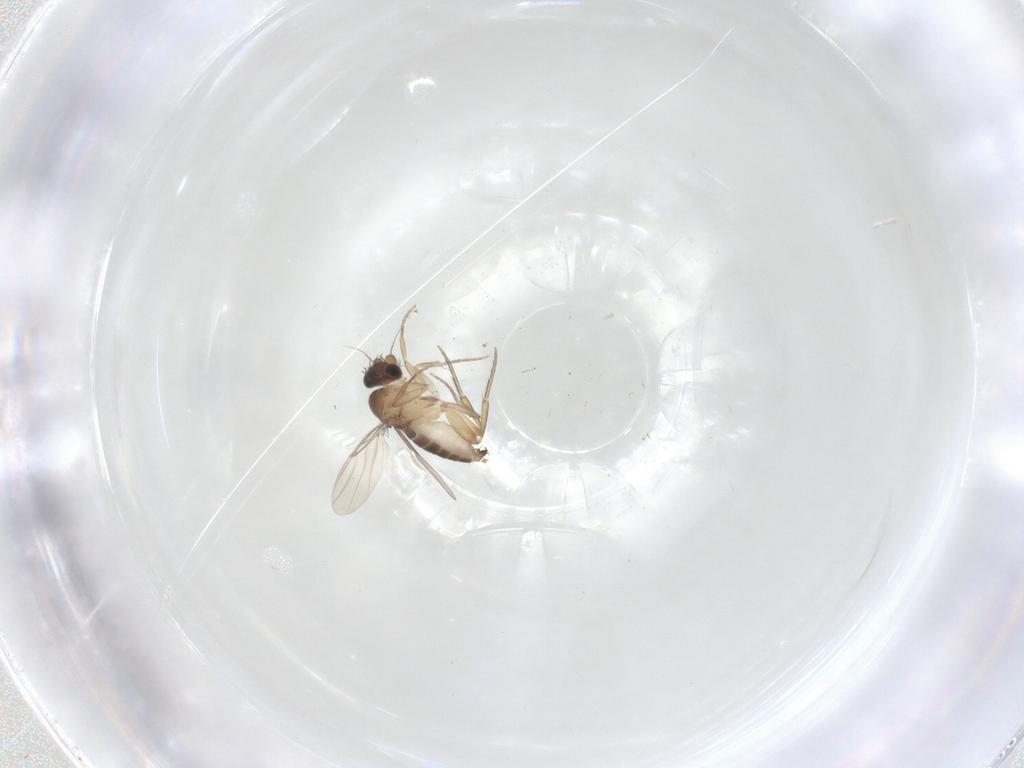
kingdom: Animalia
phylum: Arthropoda
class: Insecta
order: Diptera
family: Phoridae
